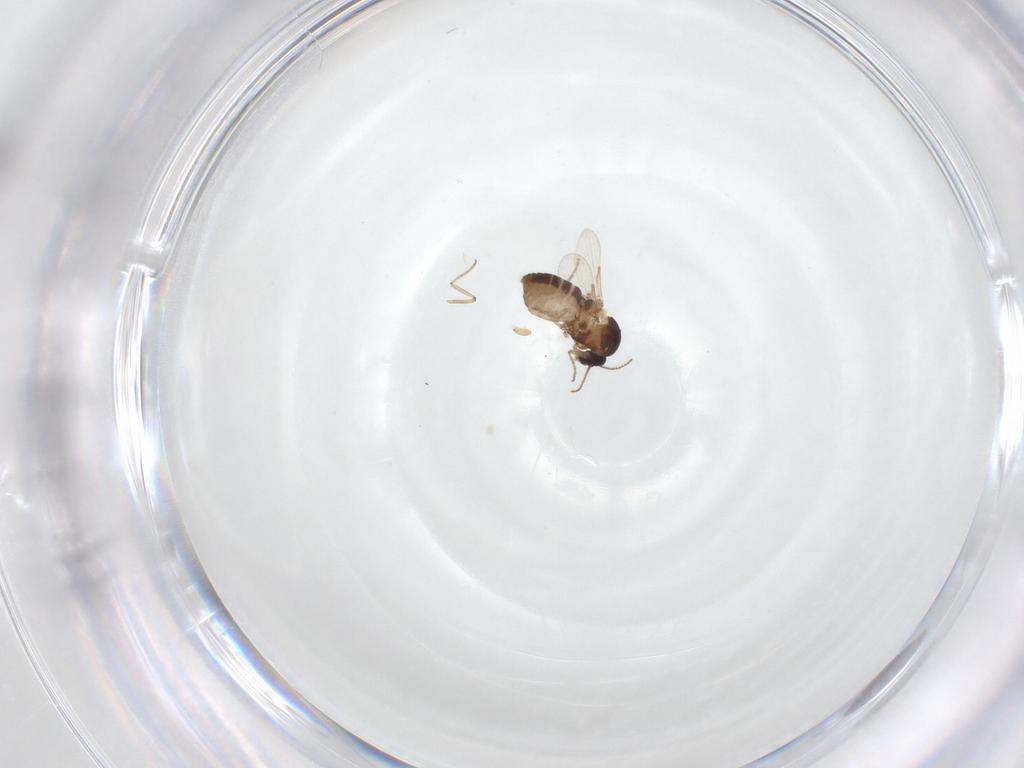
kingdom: Animalia
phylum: Arthropoda
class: Insecta
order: Diptera
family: Ceratopogonidae
